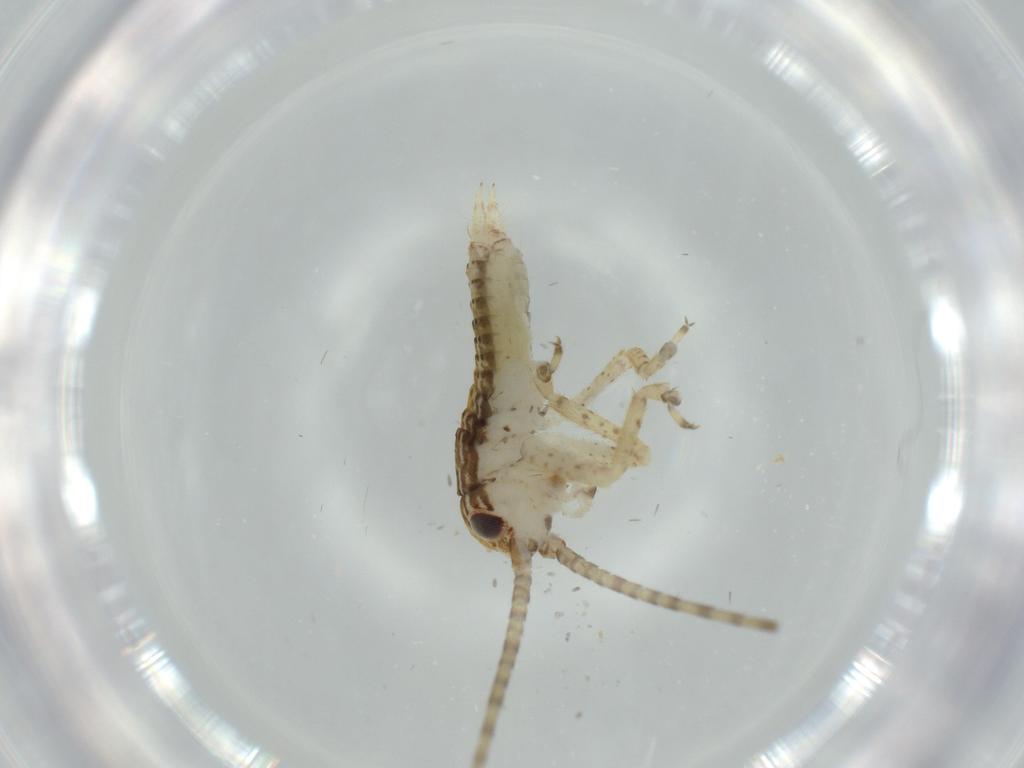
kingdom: Animalia
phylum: Arthropoda
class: Insecta
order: Orthoptera
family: Gryllidae
